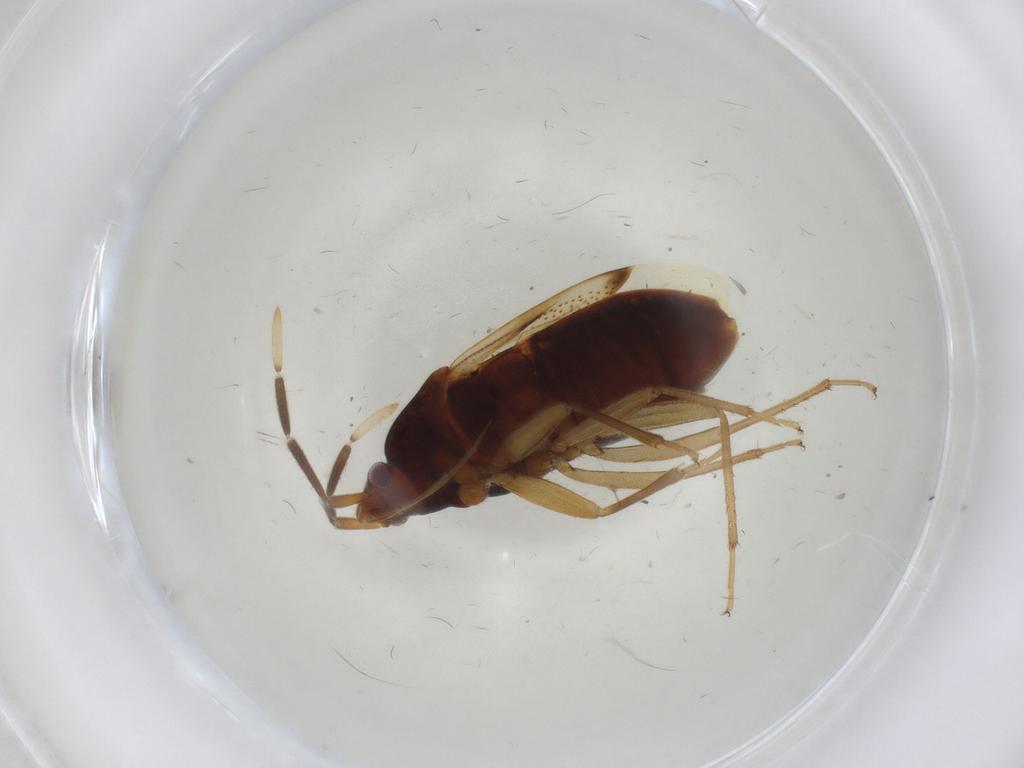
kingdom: Animalia
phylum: Arthropoda
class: Insecta
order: Hemiptera
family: Rhyparochromidae
